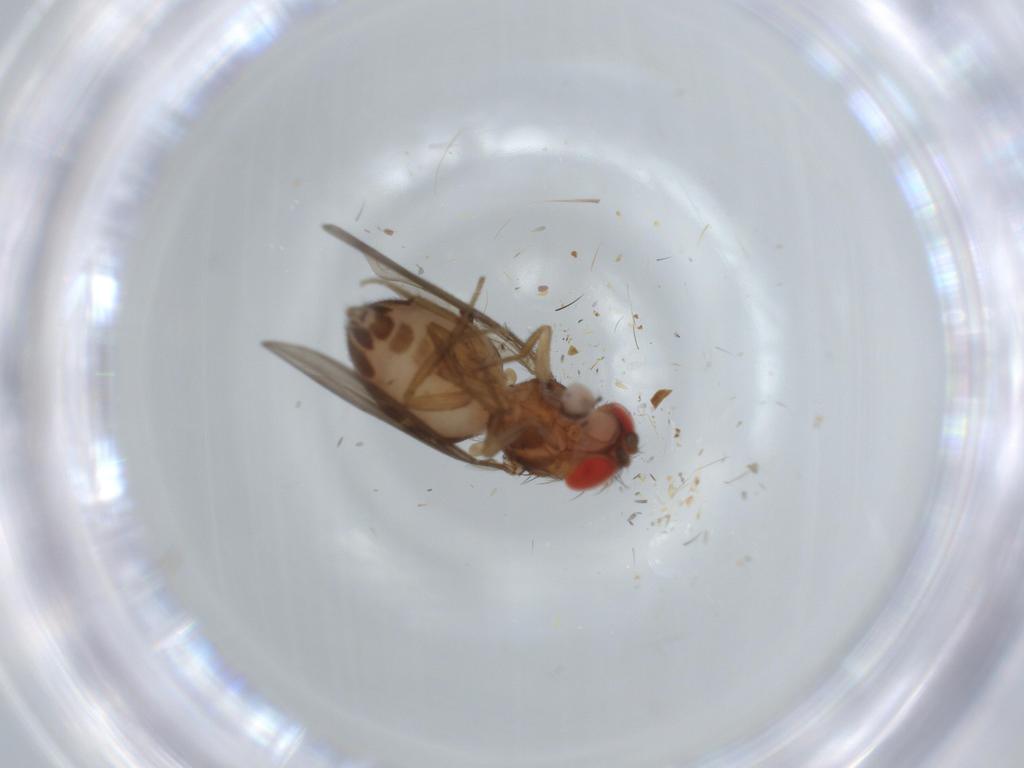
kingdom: Animalia
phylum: Arthropoda
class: Insecta
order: Diptera
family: Drosophilidae
